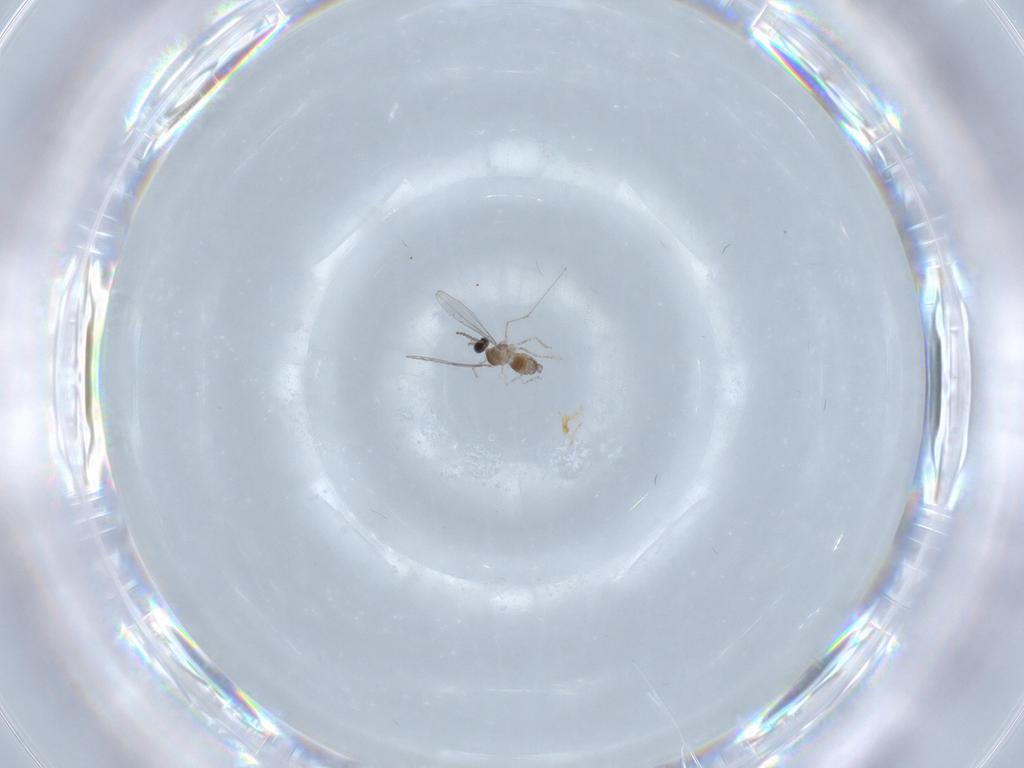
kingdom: Animalia
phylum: Arthropoda
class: Insecta
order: Diptera
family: Cecidomyiidae
